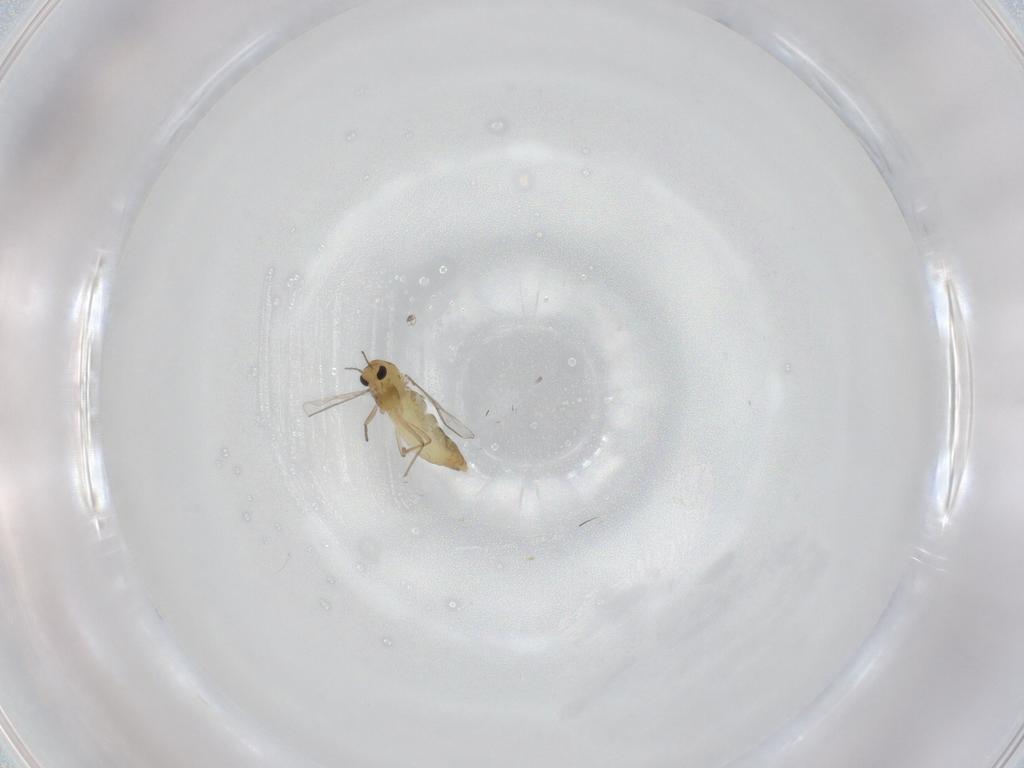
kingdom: Animalia
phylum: Arthropoda
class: Insecta
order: Diptera
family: Chironomidae
